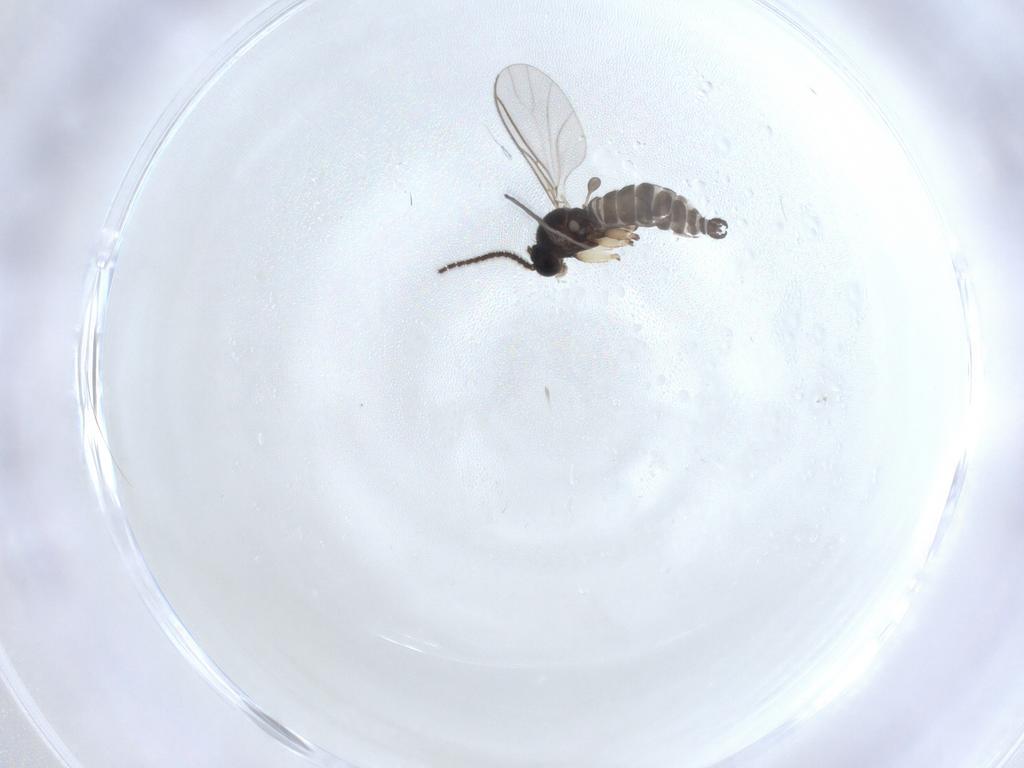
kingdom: Animalia
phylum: Arthropoda
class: Insecta
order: Diptera
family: Sciaridae
